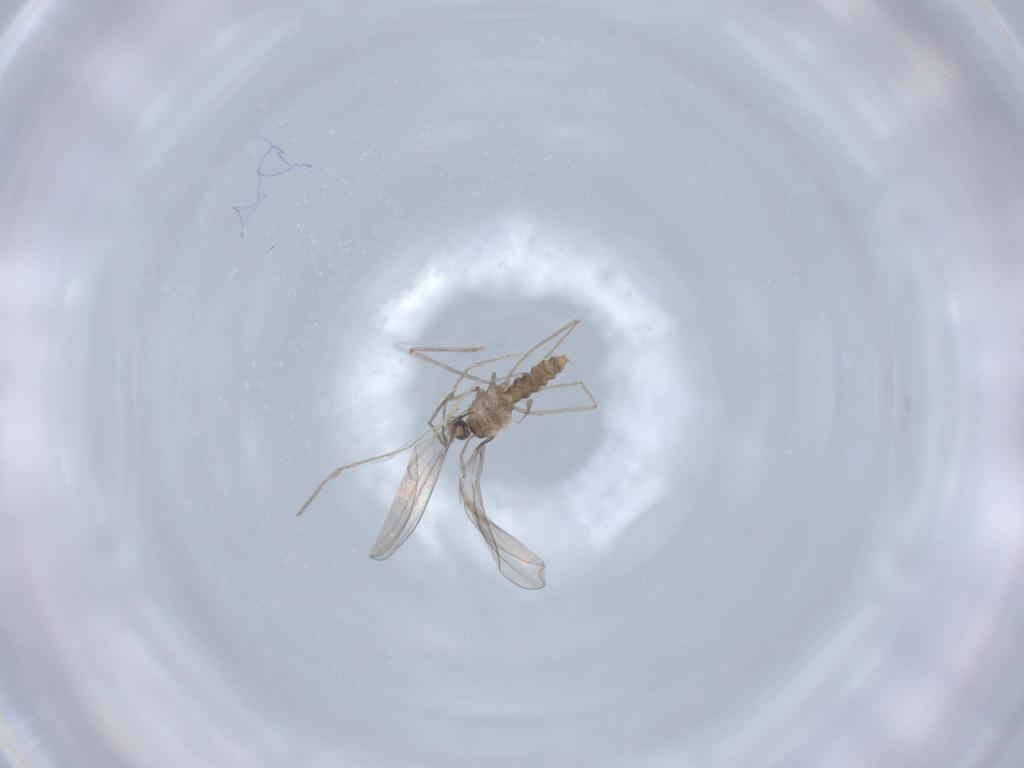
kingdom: Animalia
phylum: Arthropoda
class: Insecta
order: Diptera
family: Cecidomyiidae
